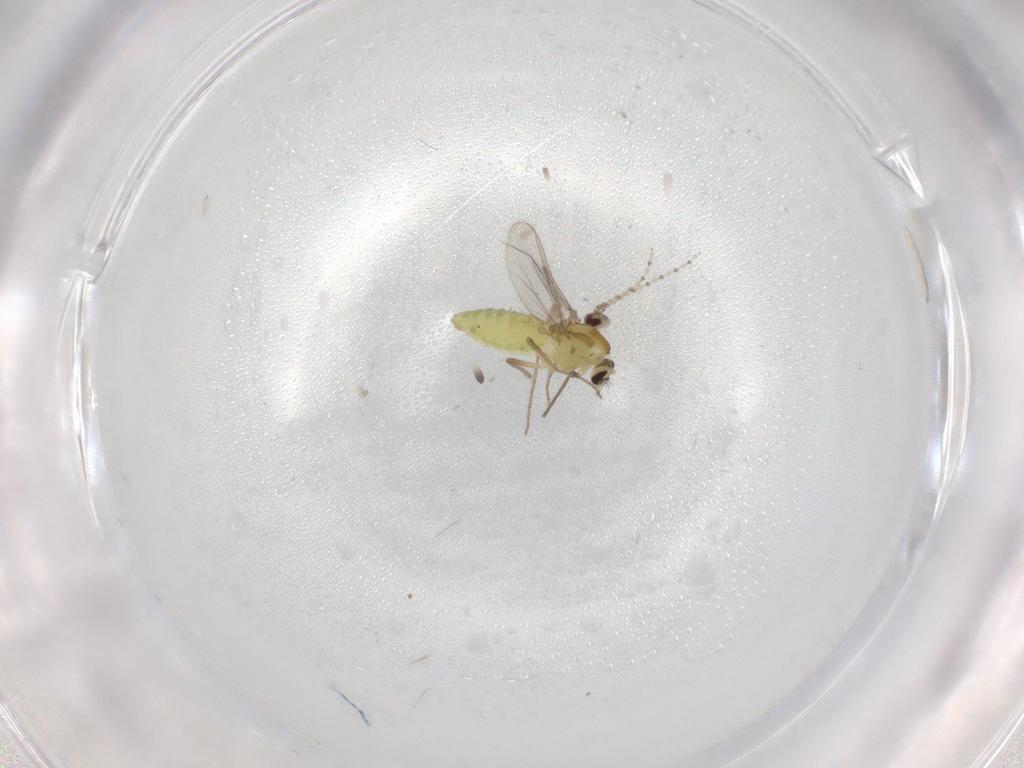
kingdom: Animalia
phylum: Arthropoda
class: Insecta
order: Diptera
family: Chironomidae
